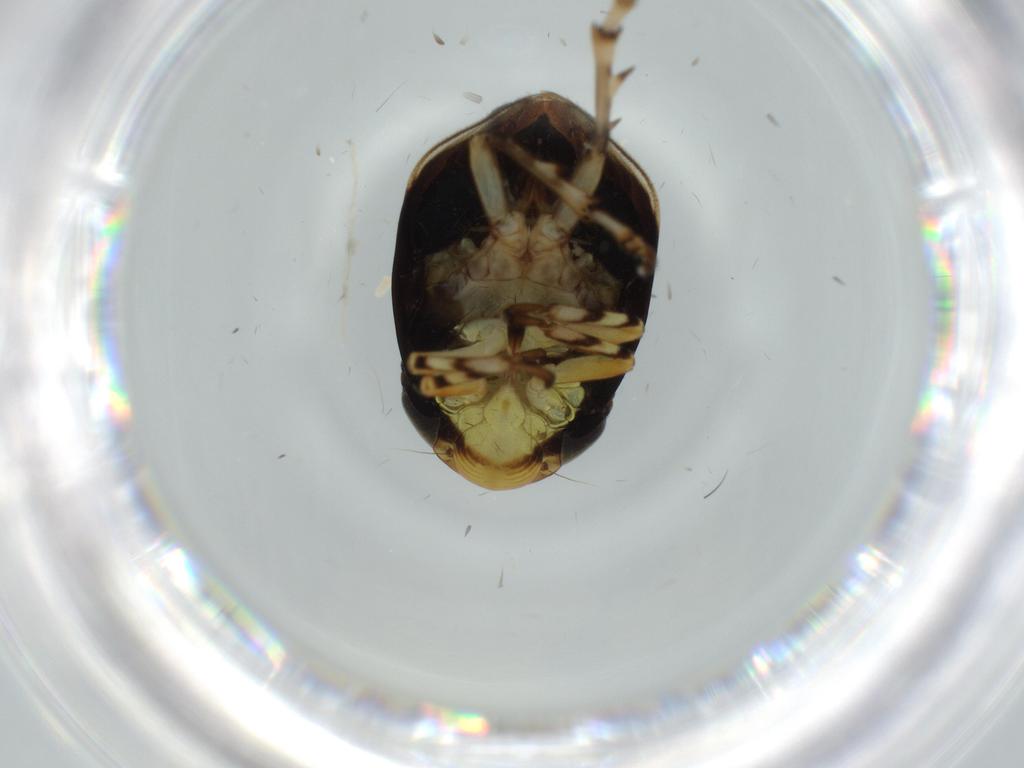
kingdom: Animalia
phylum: Arthropoda
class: Insecta
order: Hemiptera
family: Clastopteridae
